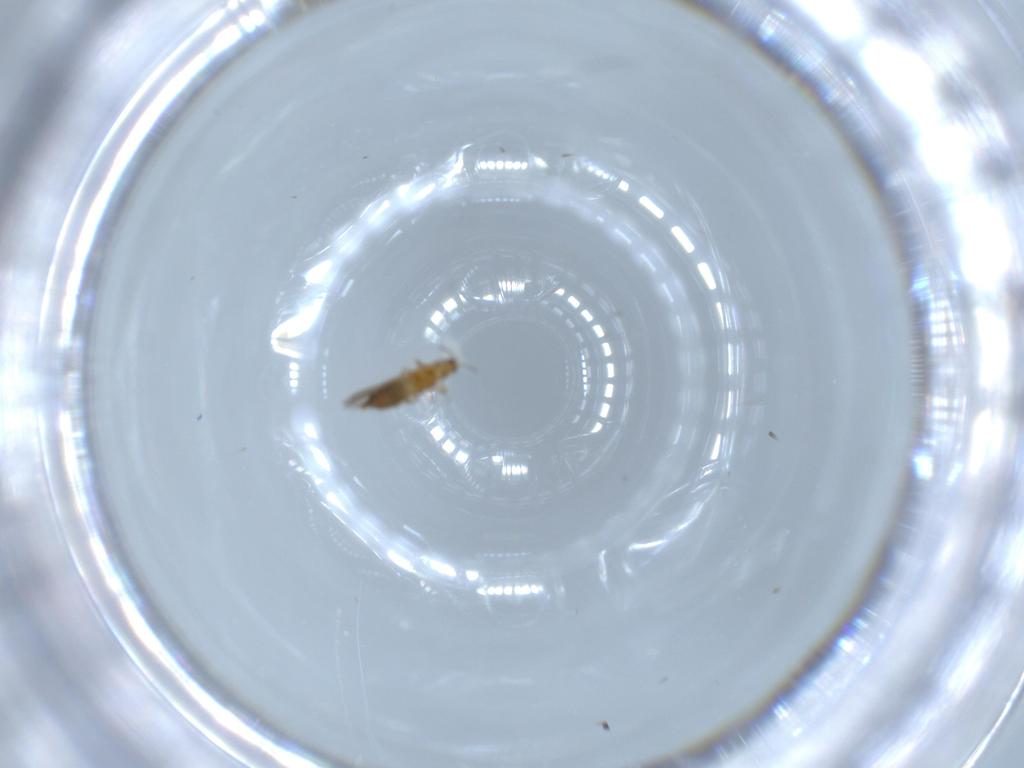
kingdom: Animalia
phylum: Arthropoda
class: Insecta
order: Thysanoptera
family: Thripidae
